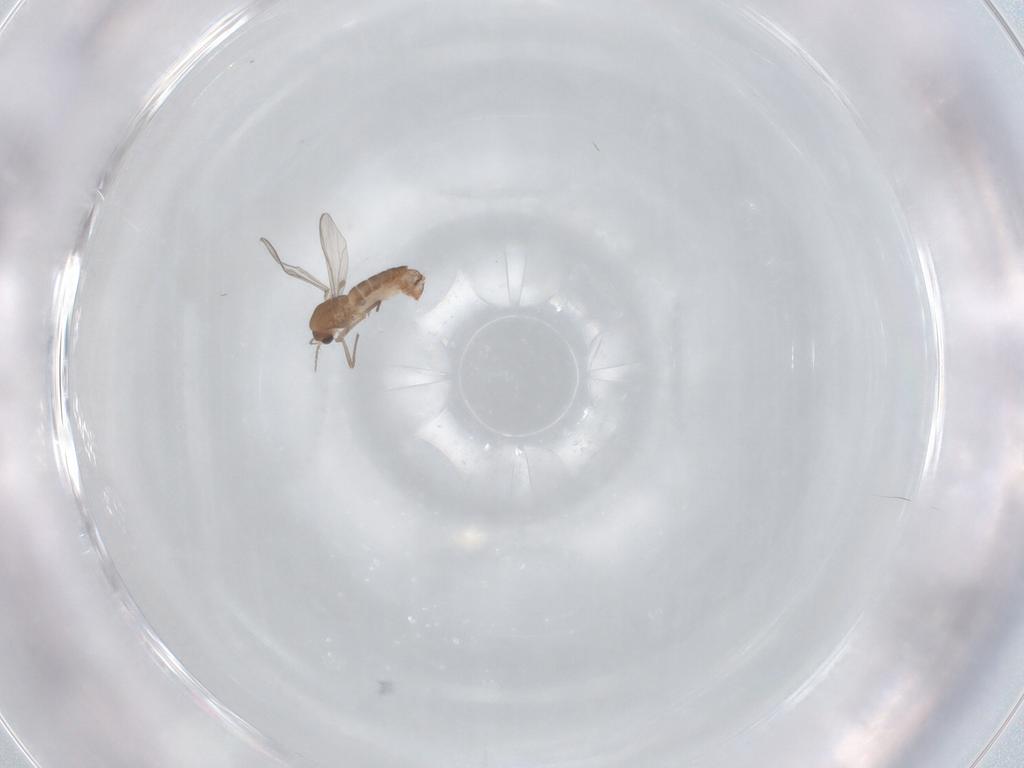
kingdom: Animalia
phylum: Arthropoda
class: Insecta
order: Diptera
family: Chironomidae
